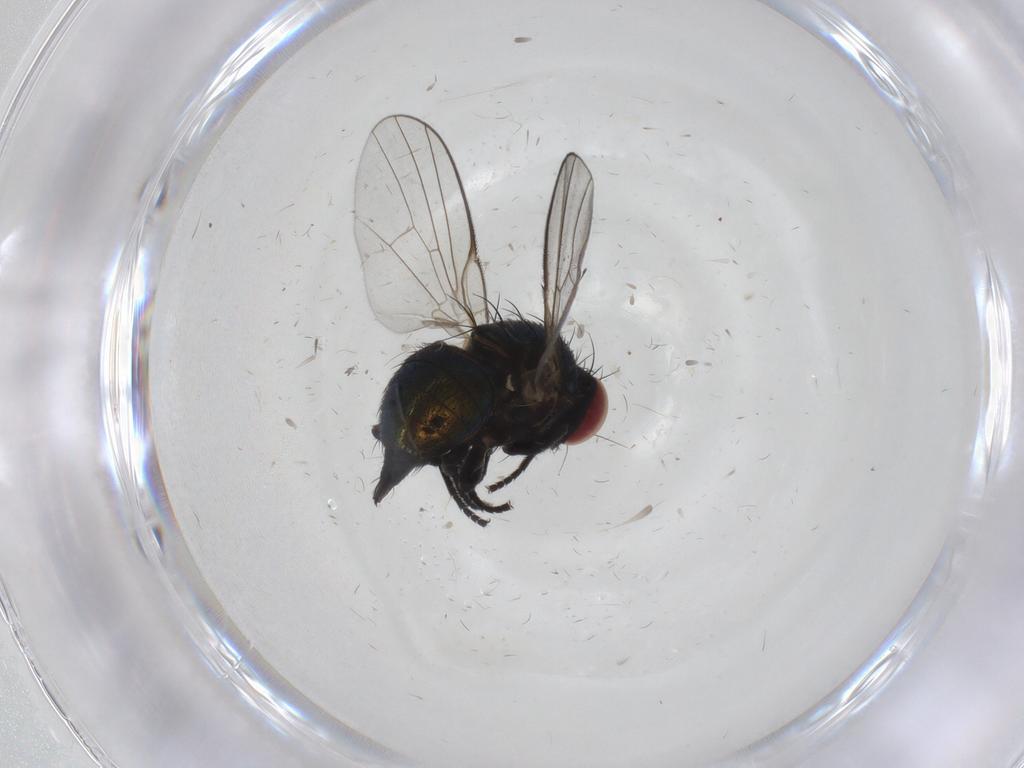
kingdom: Animalia
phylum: Arthropoda
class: Insecta
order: Diptera
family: Agromyzidae
